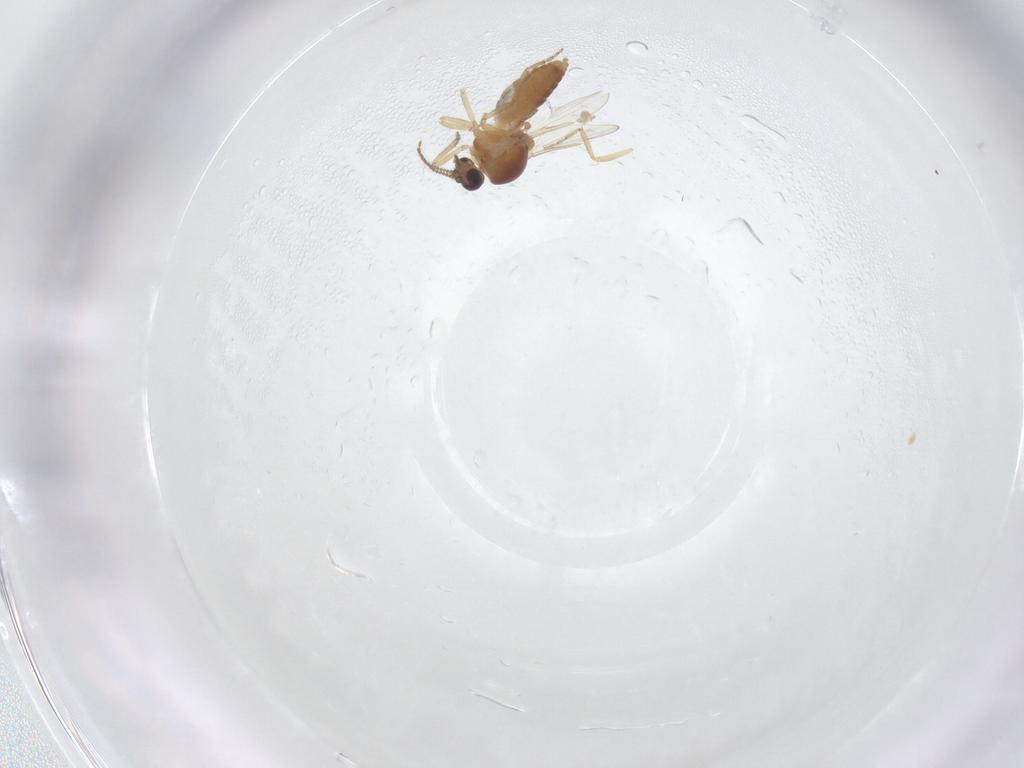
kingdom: Animalia
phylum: Arthropoda
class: Insecta
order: Diptera
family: Ceratopogonidae
